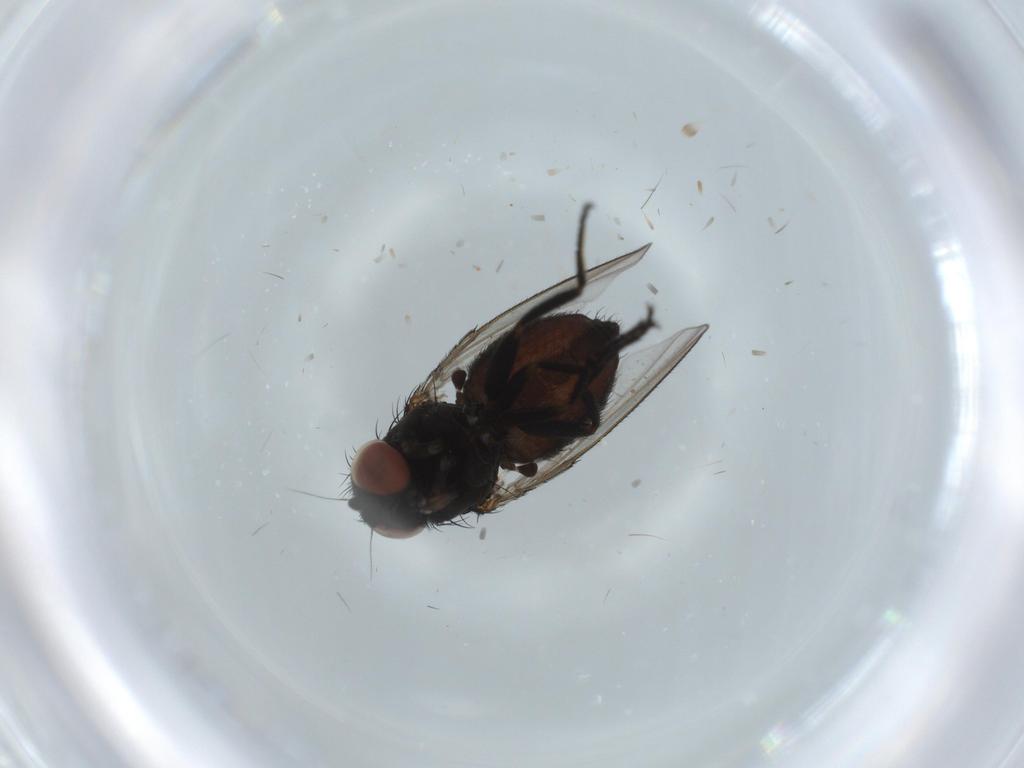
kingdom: Animalia
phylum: Arthropoda
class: Insecta
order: Diptera
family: Milichiidae
